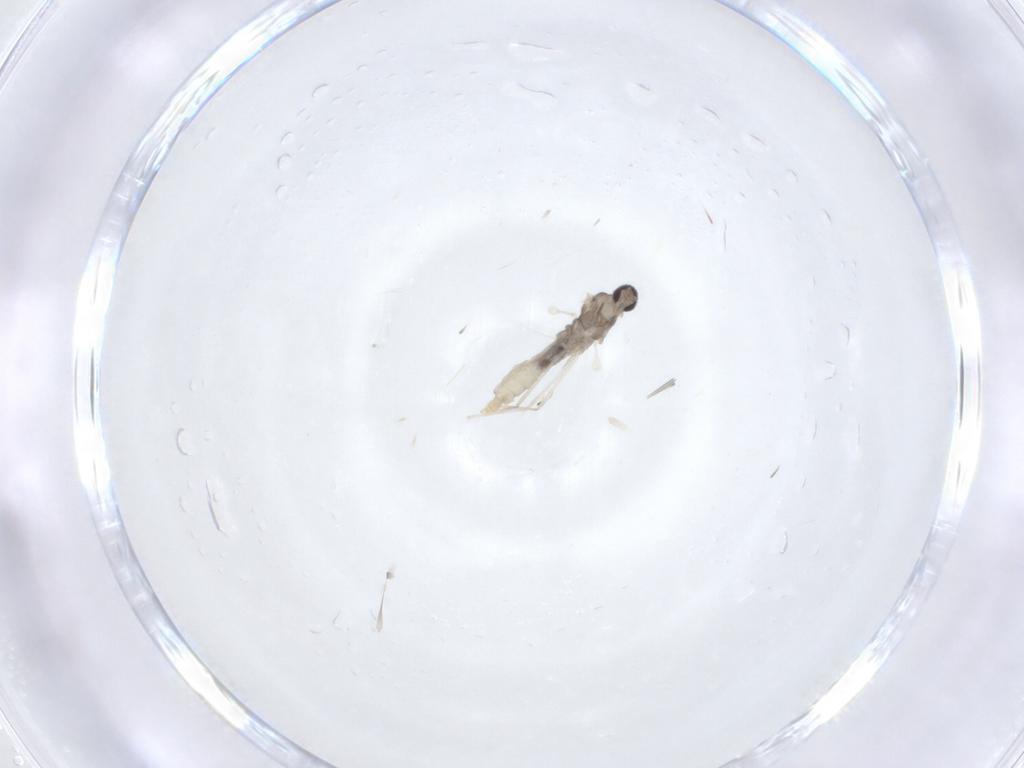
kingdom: Animalia
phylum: Arthropoda
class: Insecta
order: Diptera
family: Cecidomyiidae
